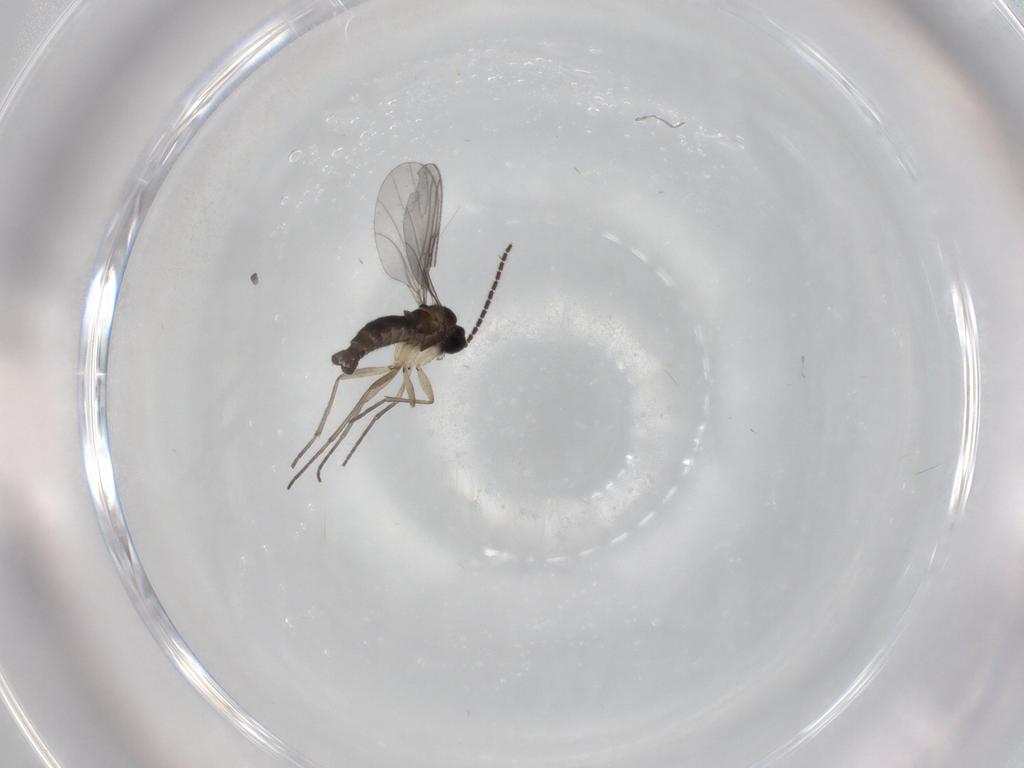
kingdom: Animalia
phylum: Arthropoda
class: Insecta
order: Diptera
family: Sciaridae
